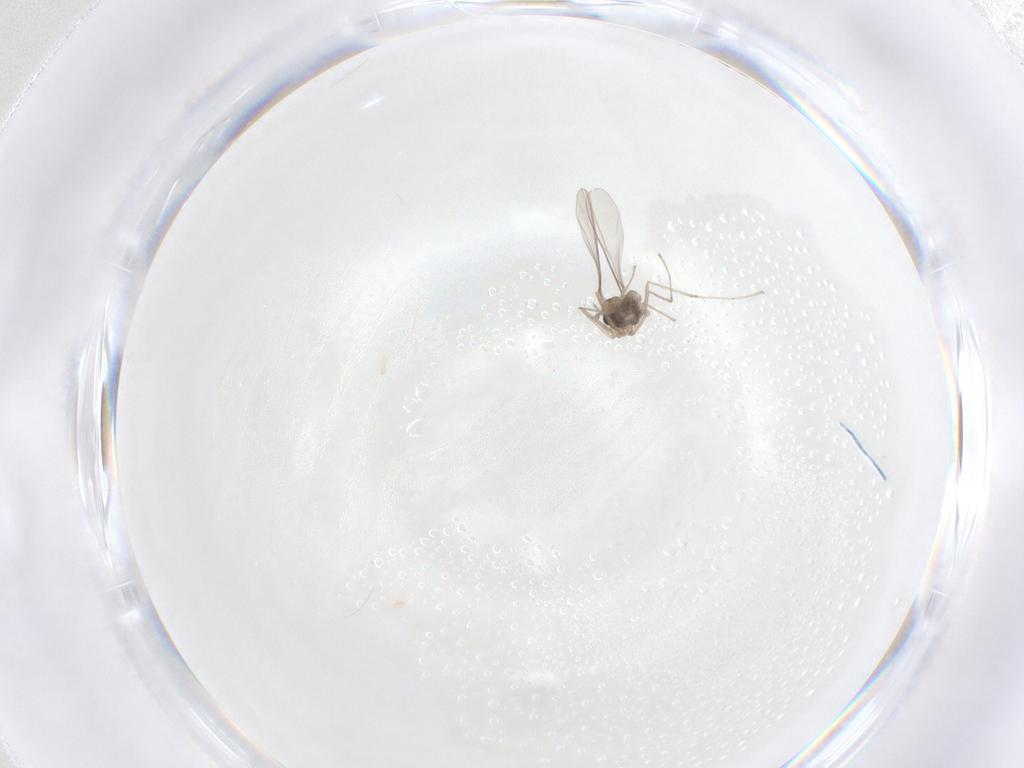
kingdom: Animalia
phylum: Arthropoda
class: Insecta
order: Diptera
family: Cecidomyiidae
